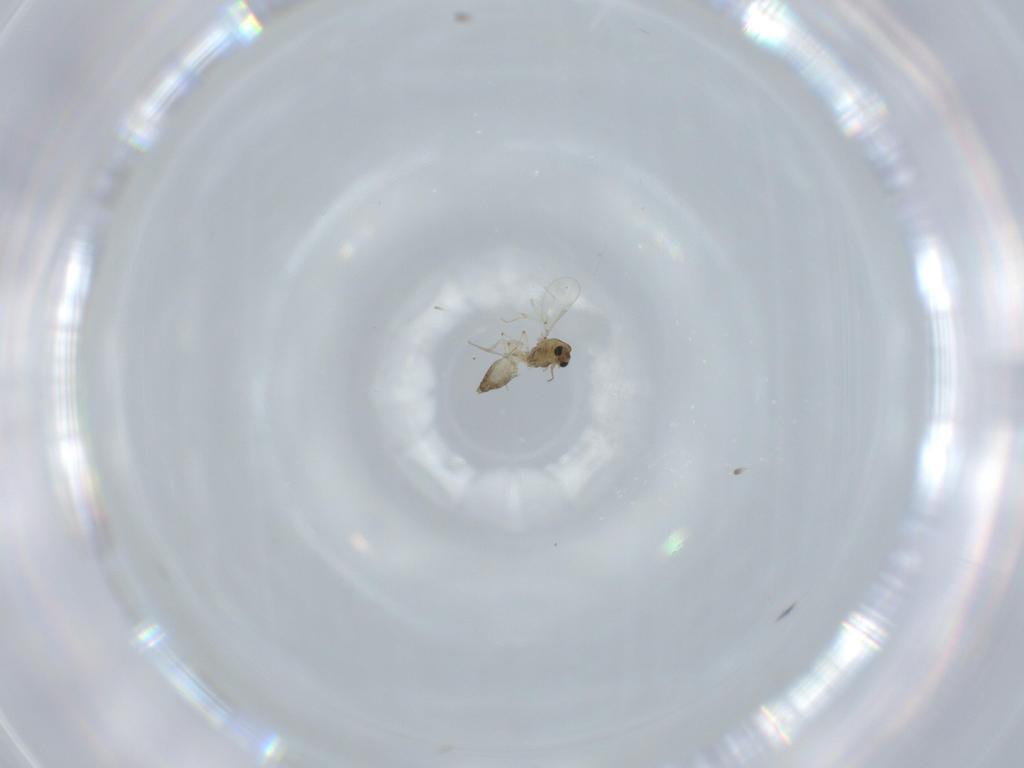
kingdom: Animalia
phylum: Arthropoda
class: Insecta
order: Diptera
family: Chironomidae
